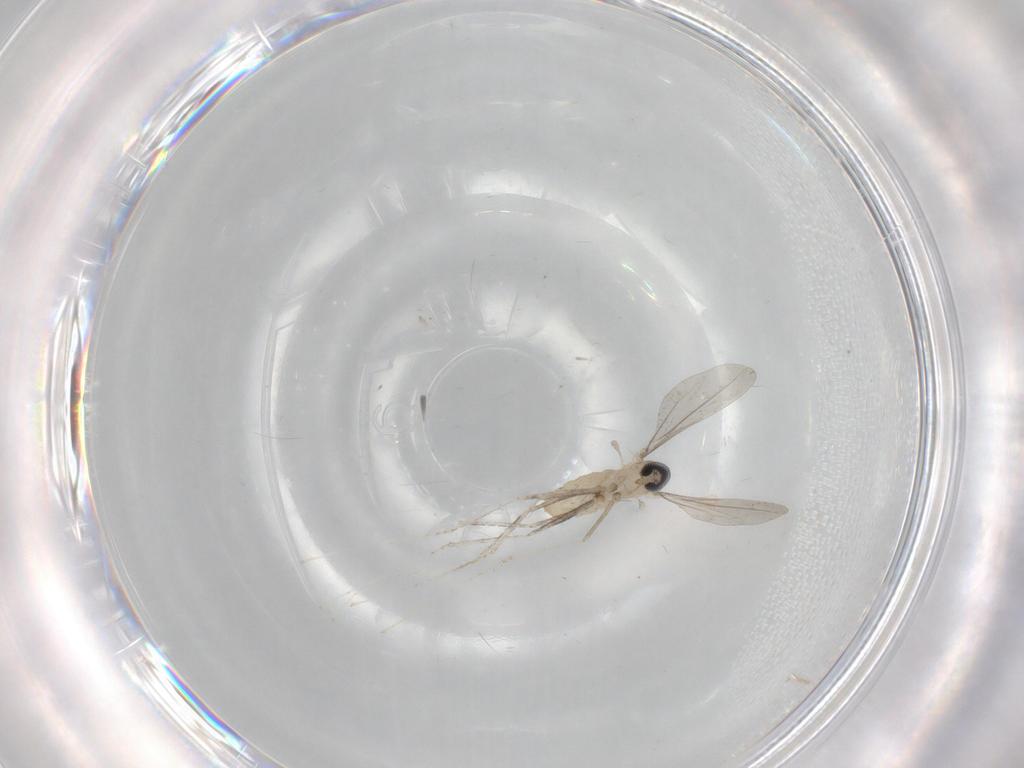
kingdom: Animalia
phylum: Arthropoda
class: Insecta
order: Diptera
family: Cecidomyiidae
